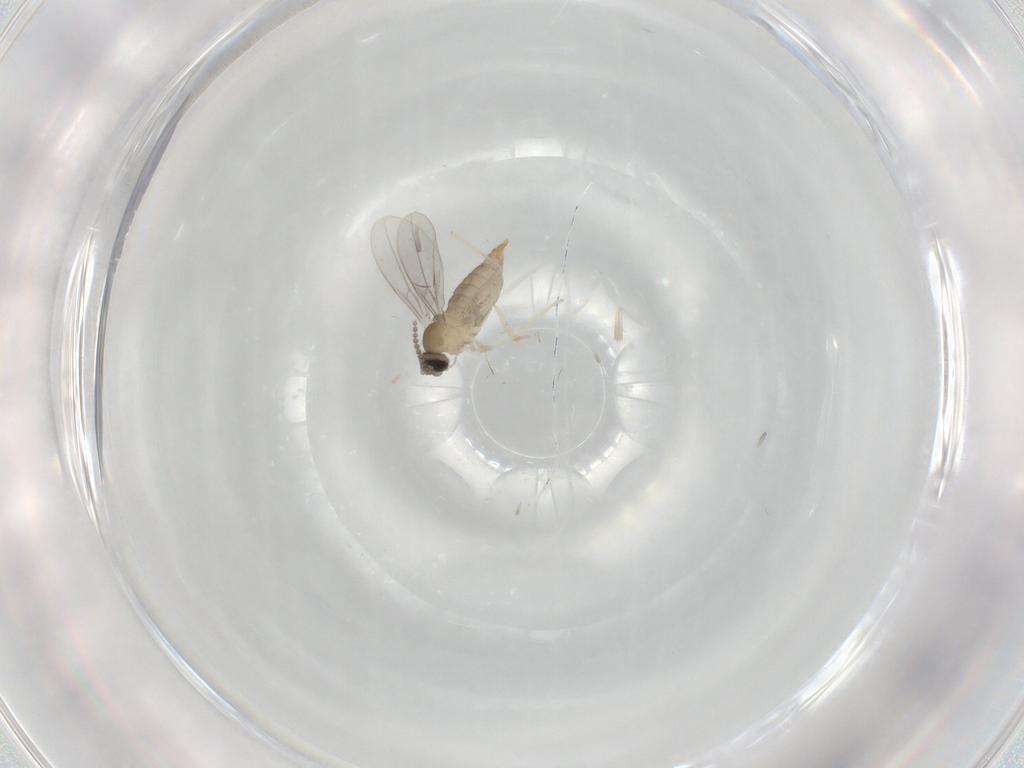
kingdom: Animalia
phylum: Arthropoda
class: Insecta
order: Diptera
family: Cecidomyiidae
